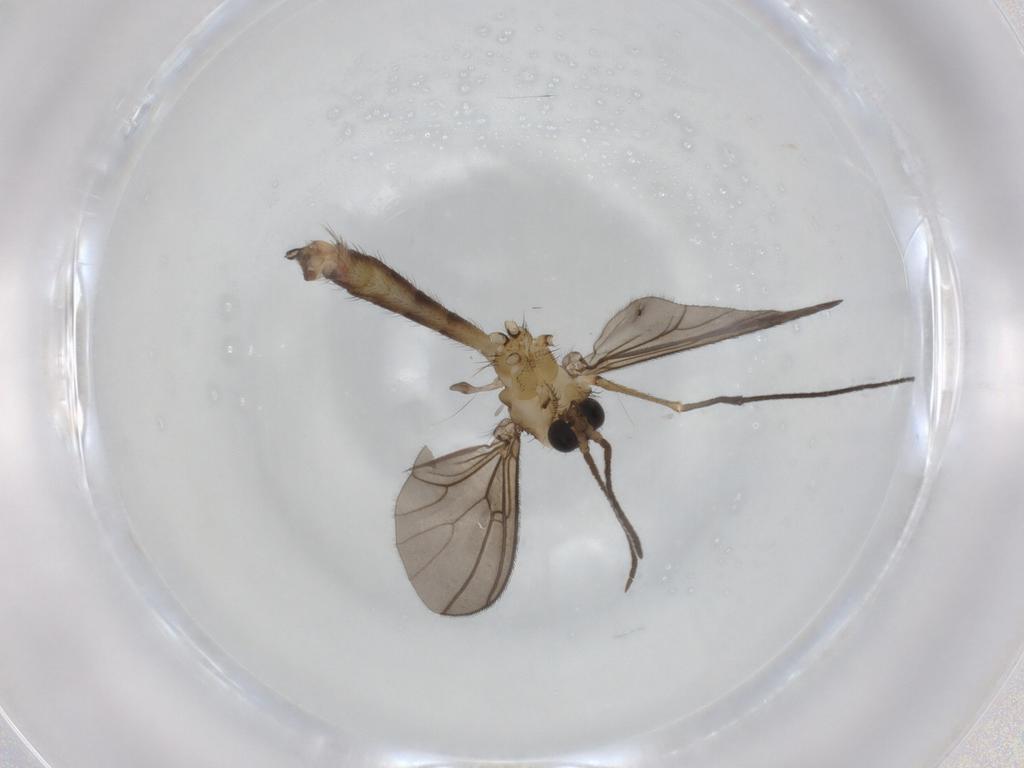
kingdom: Animalia
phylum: Arthropoda
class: Insecta
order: Diptera
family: Mycetophilidae
